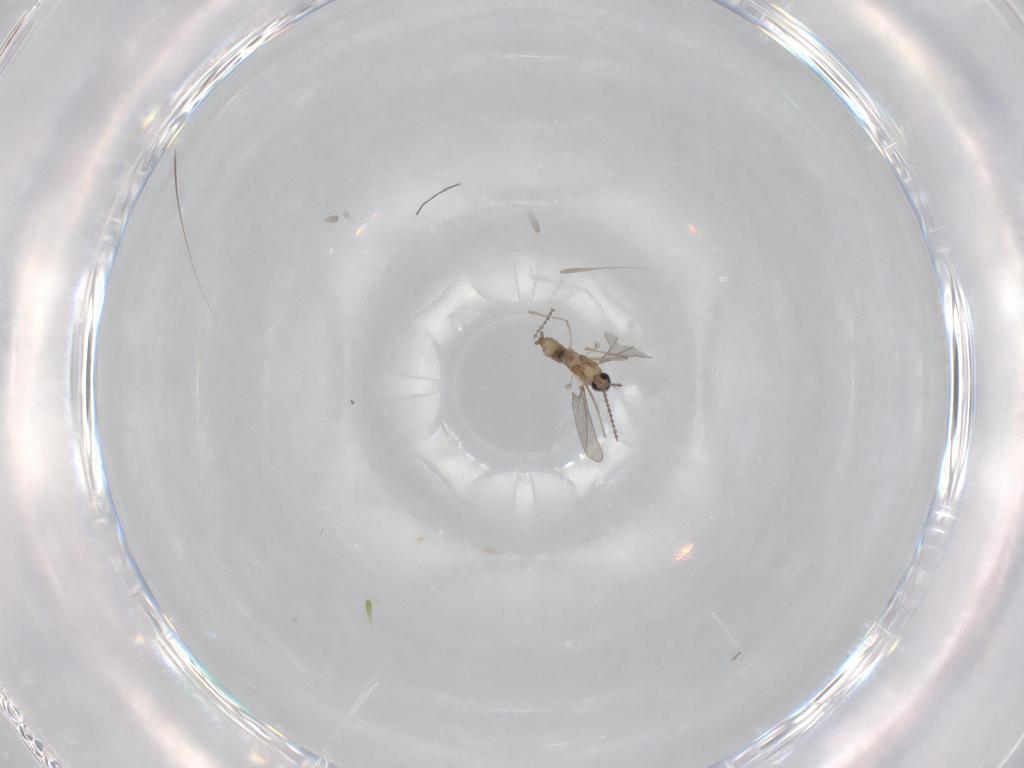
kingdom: Animalia
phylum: Arthropoda
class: Insecta
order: Diptera
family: Cecidomyiidae
